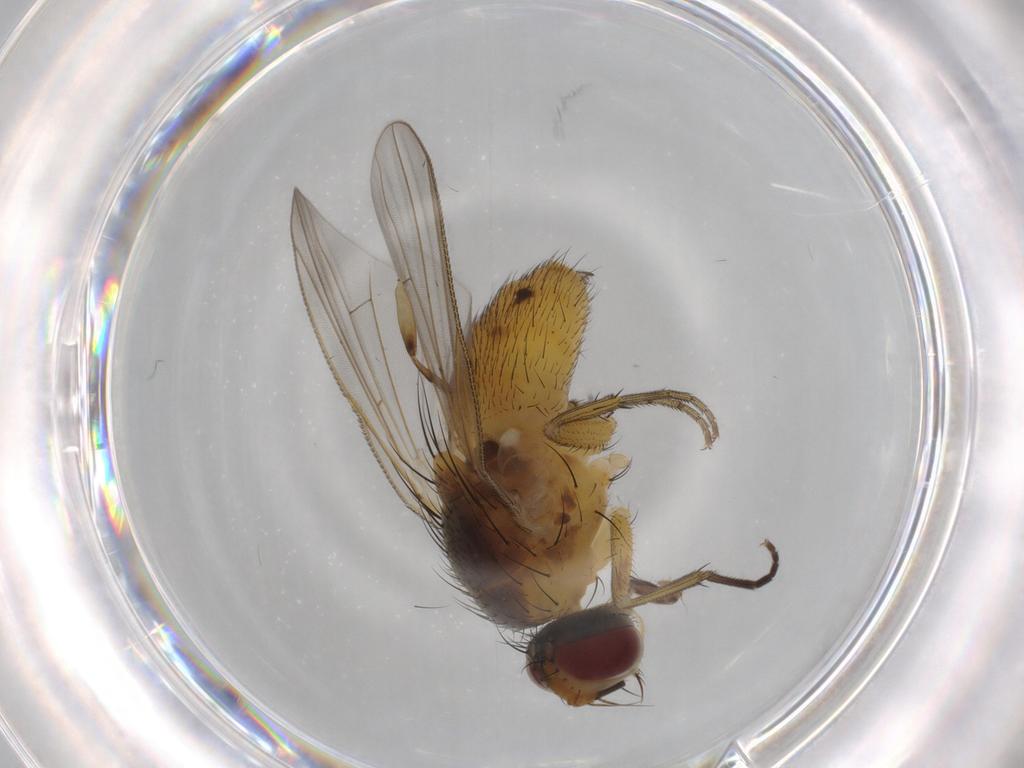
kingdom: Animalia
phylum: Arthropoda
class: Insecta
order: Diptera
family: Muscidae
